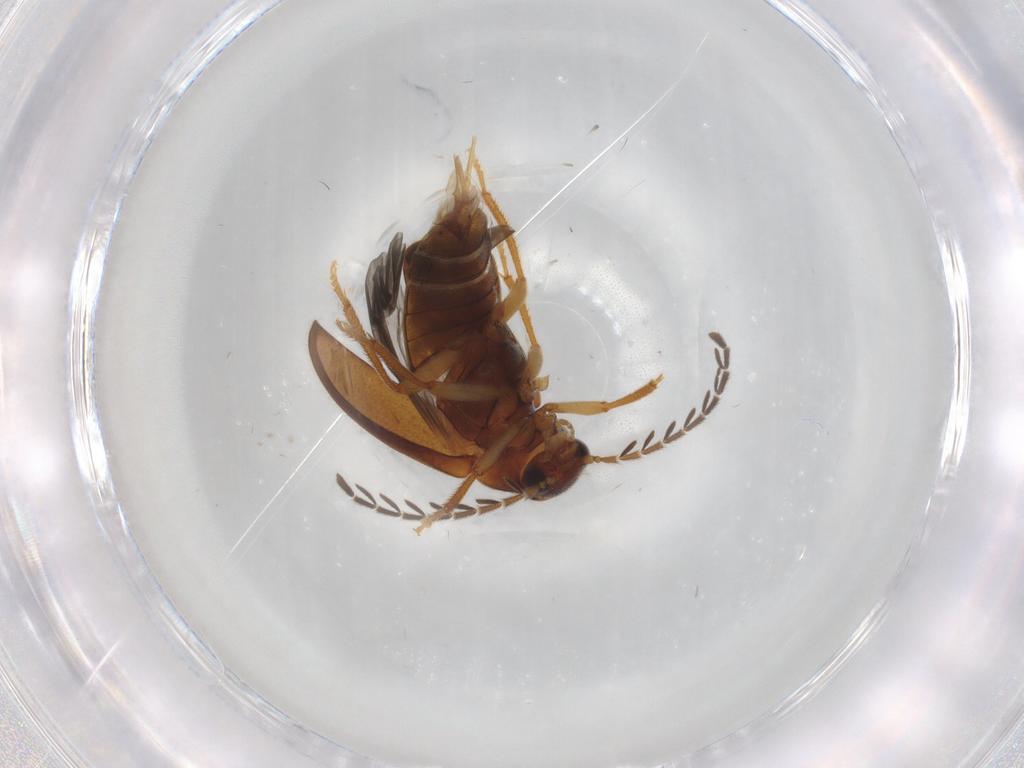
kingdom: Animalia
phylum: Arthropoda
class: Insecta
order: Coleoptera
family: Ptilodactylidae
